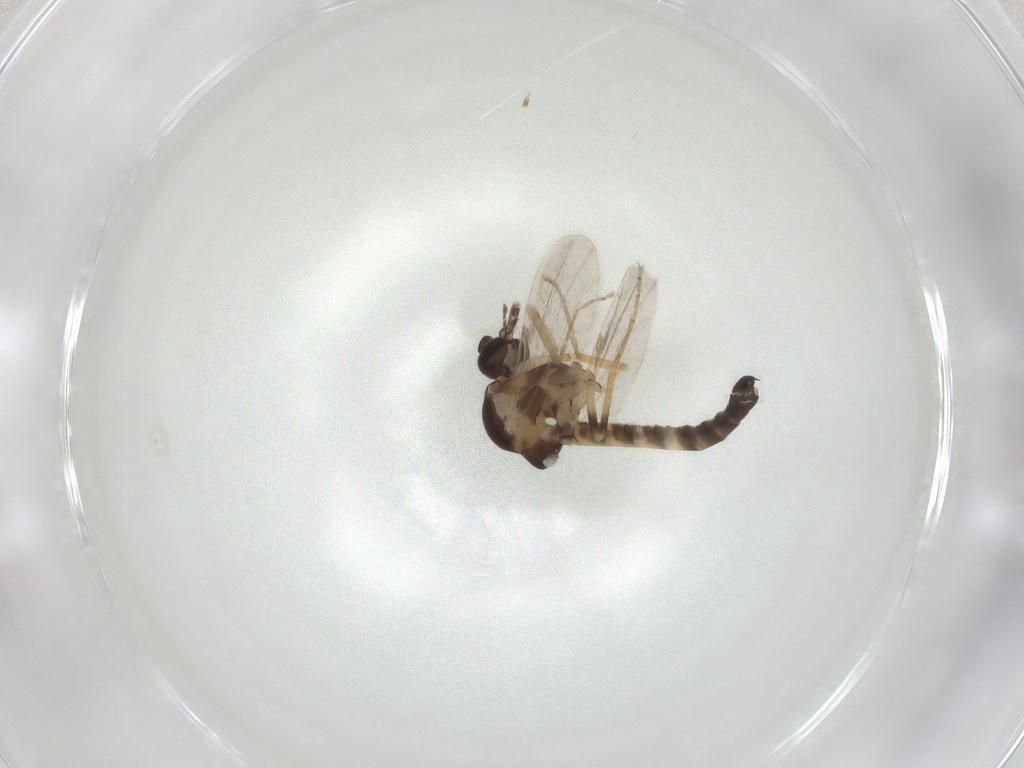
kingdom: Animalia
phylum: Arthropoda
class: Insecta
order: Diptera
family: Ceratopogonidae
